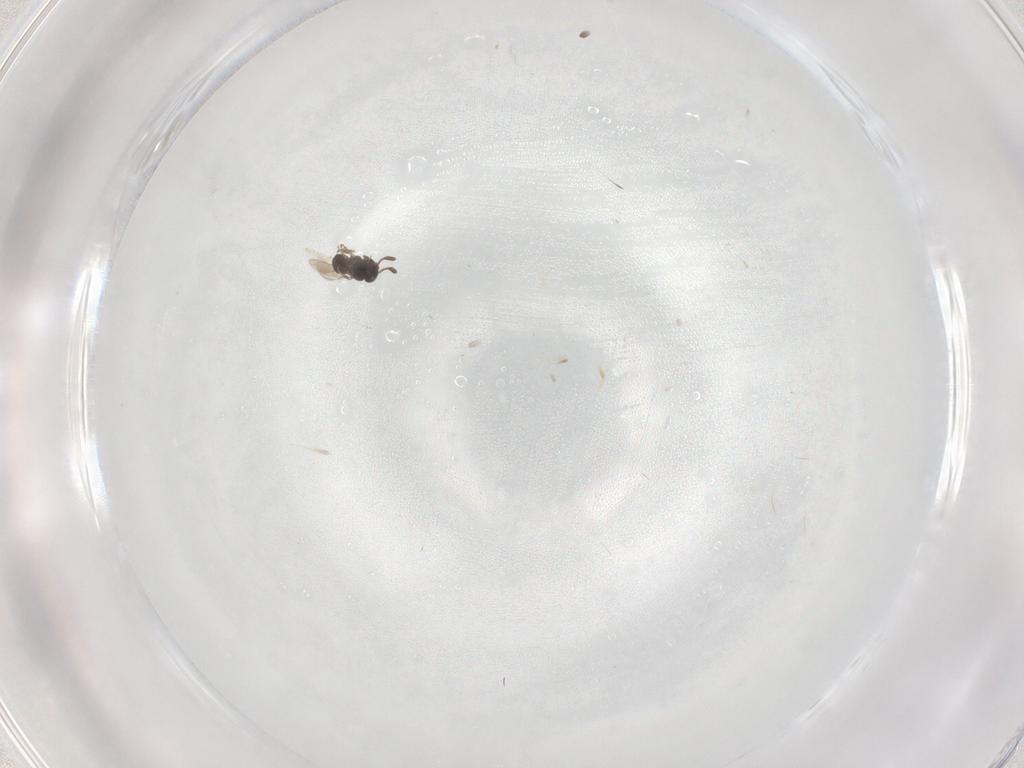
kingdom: Animalia
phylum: Arthropoda
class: Insecta
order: Hymenoptera
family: Scelionidae
